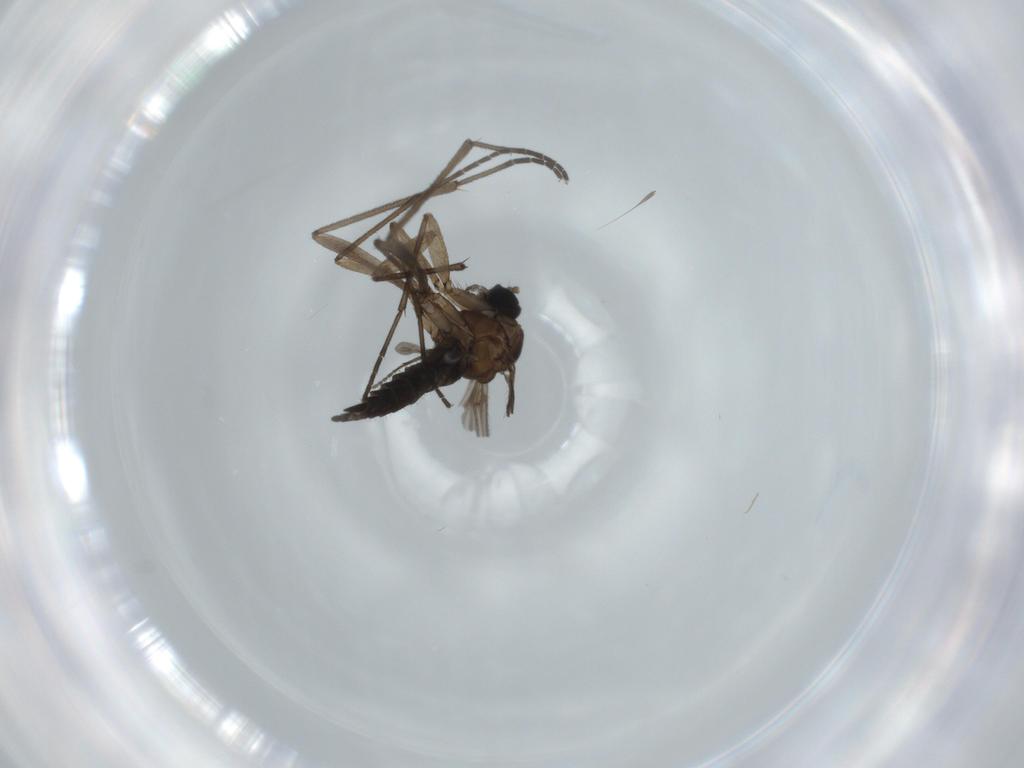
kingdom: Animalia
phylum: Arthropoda
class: Insecta
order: Diptera
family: Sciaridae
